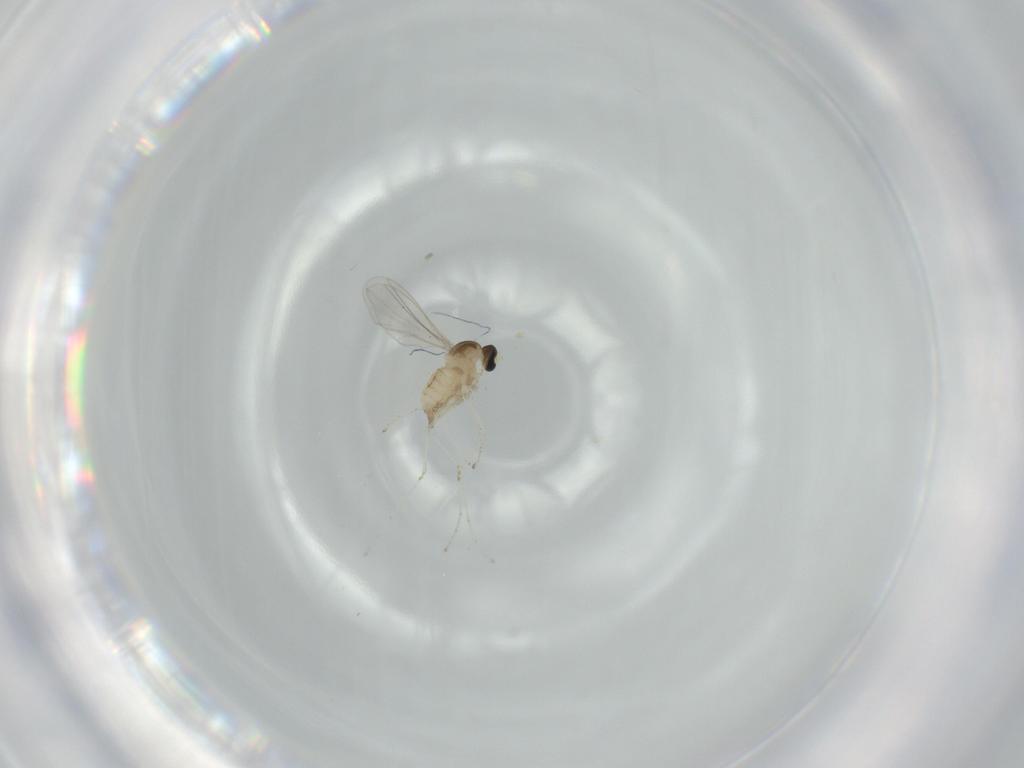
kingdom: Animalia
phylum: Arthropoda
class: Insecta
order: Diptera
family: Cecidomyiidae
